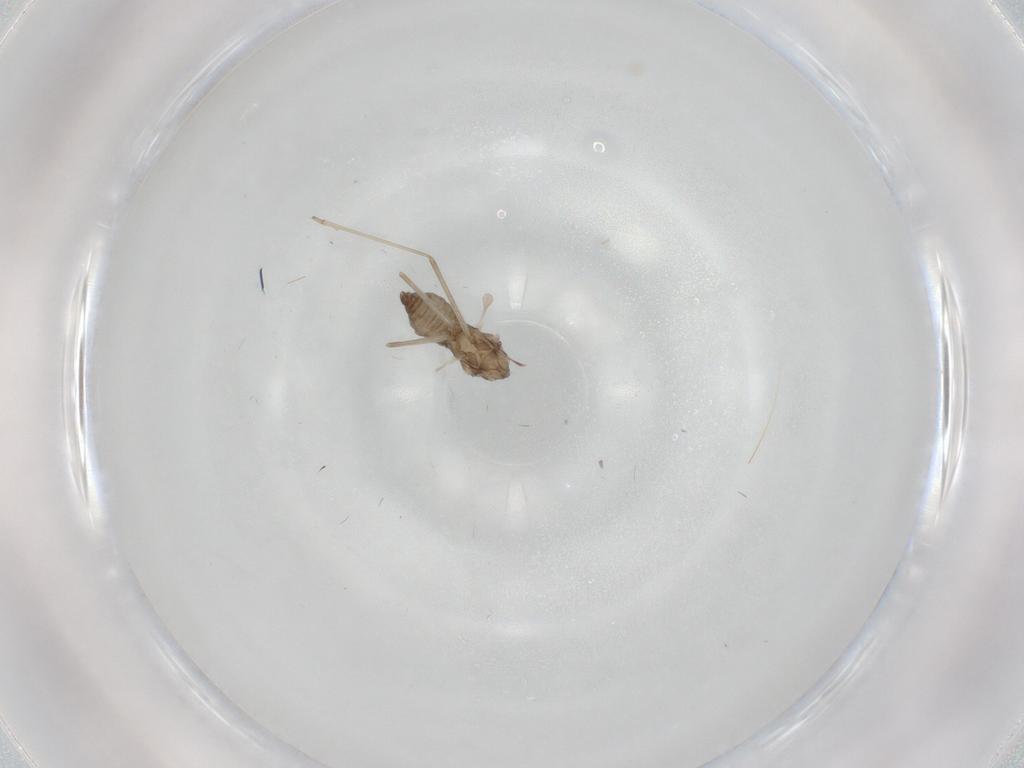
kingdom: Animalia
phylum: Arthropoda
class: Insecta
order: Diptera
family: Cecidomyiidae
